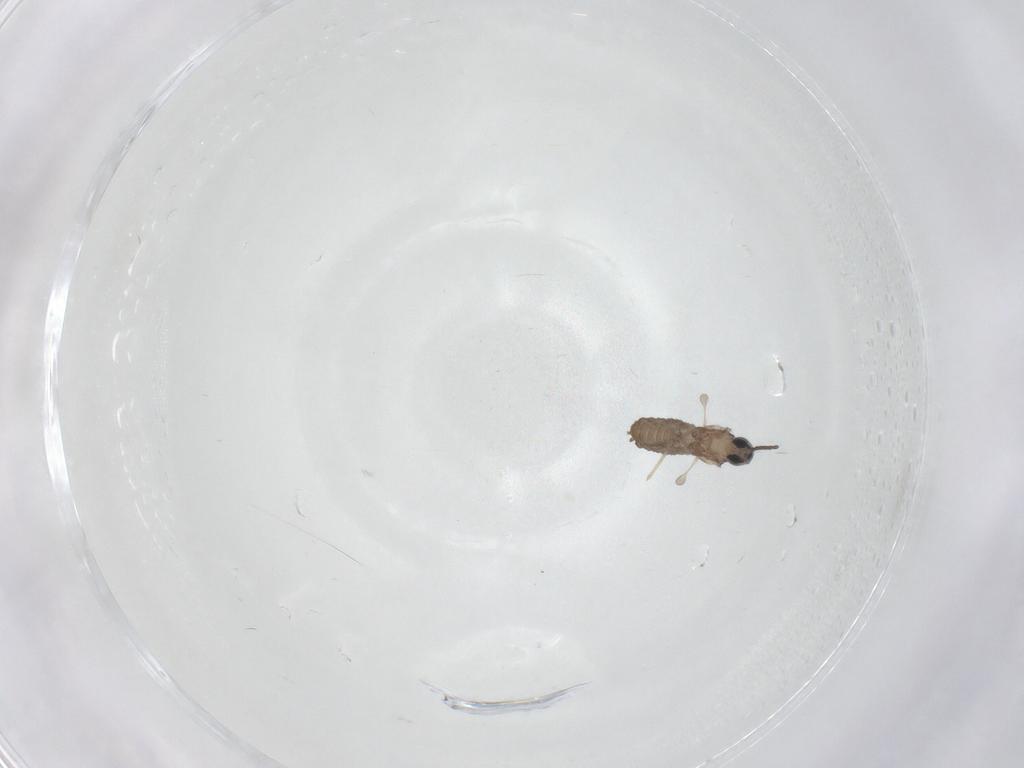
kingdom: Animalia
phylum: Arthropoda
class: Insecta
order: Diptera
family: Cecidomyiidae
